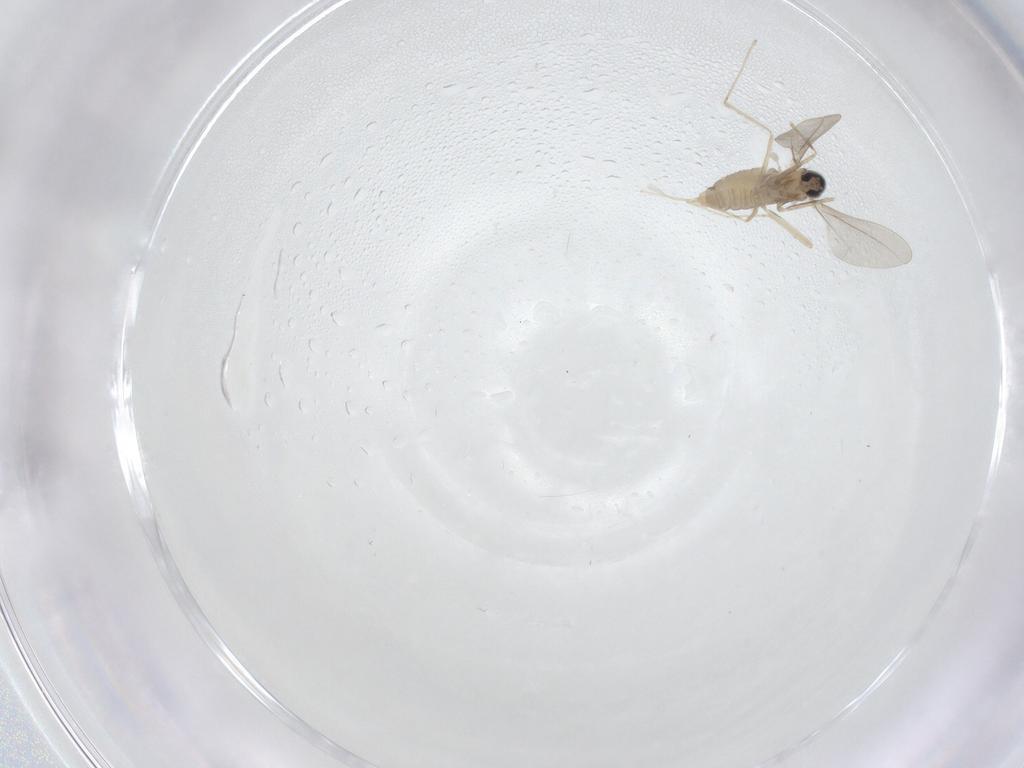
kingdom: Animalia
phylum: Arthropoda
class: Insecta
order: Diptera
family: Cecidomyiidae
